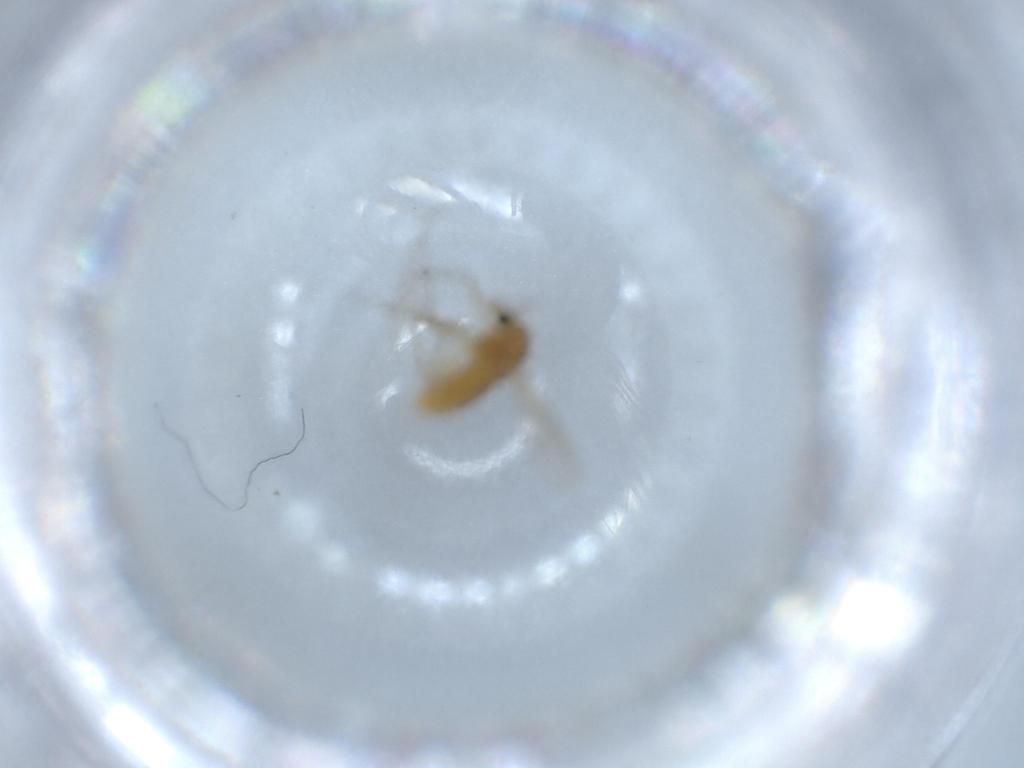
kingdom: Animalia
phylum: Arthropoda
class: Insecta
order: Diptera
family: Chironomidae
